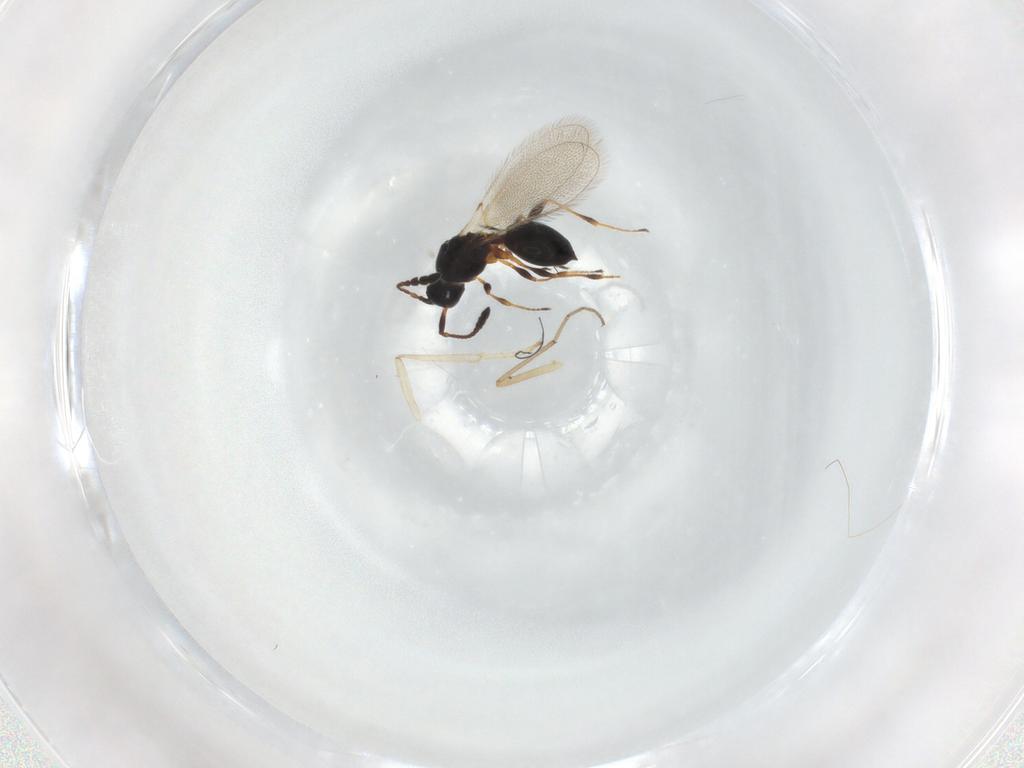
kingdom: Animalia
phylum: Arthropoda
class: Insecta
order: Hymenoptera
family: Diapriidae
